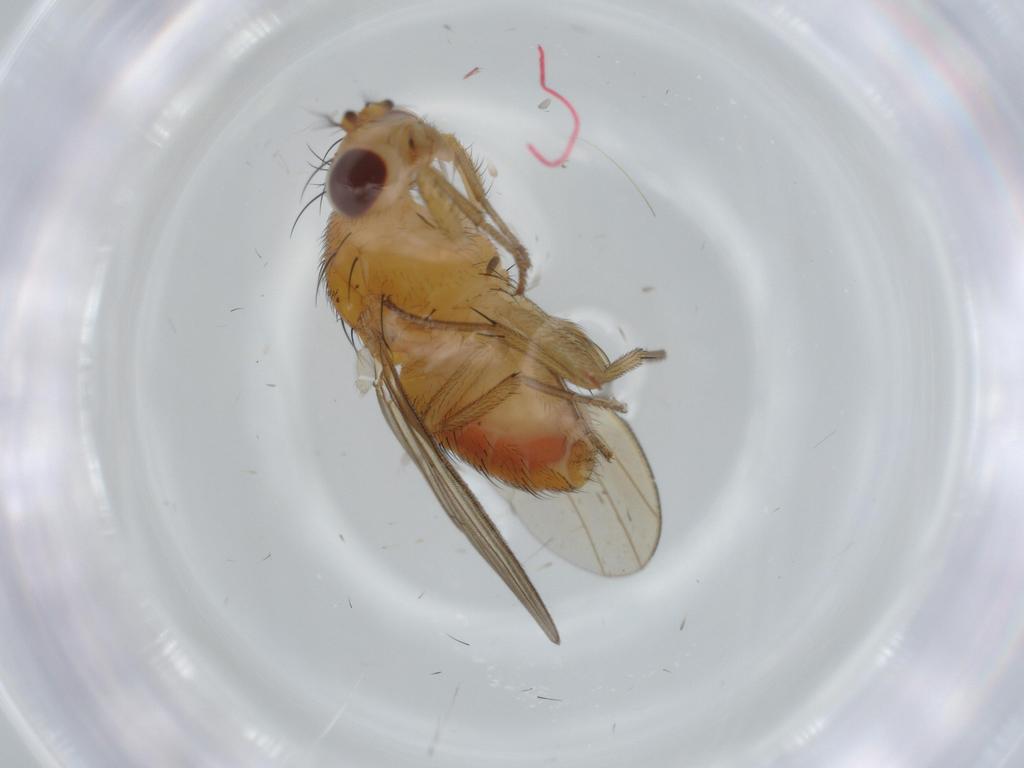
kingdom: Animalia
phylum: Arthropoda
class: Insecta
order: Diptera
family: Lauxaniidae
